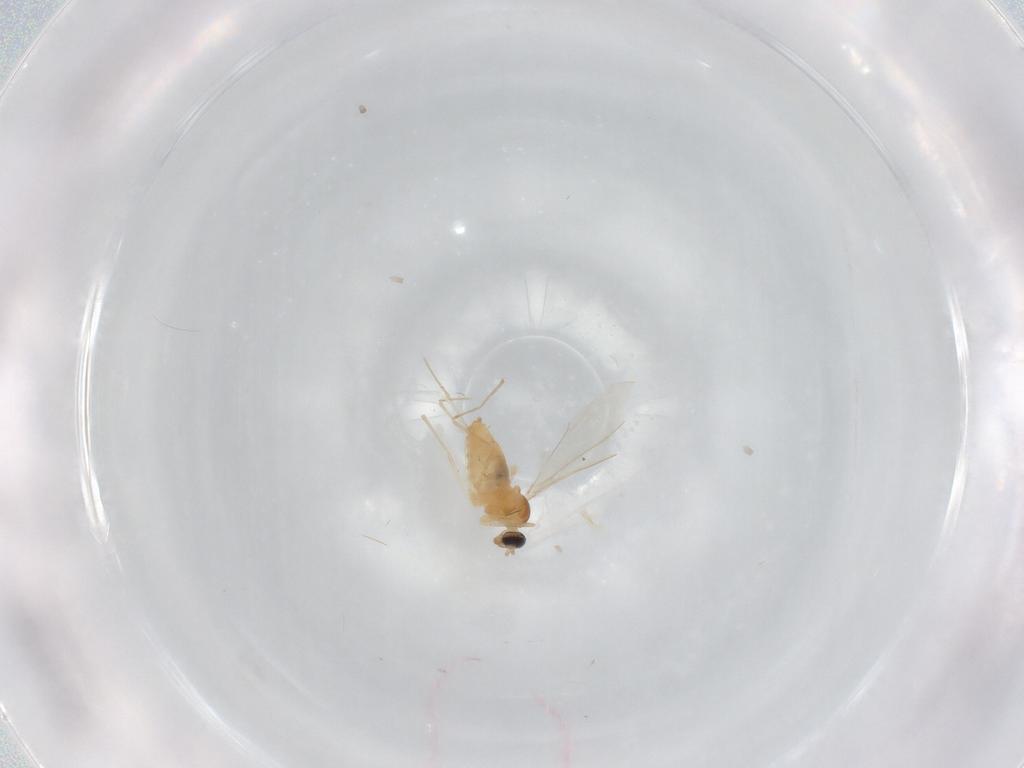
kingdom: Animalia
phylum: Arthropoda
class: Insecta
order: Diptera
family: Cecidomyiidae
